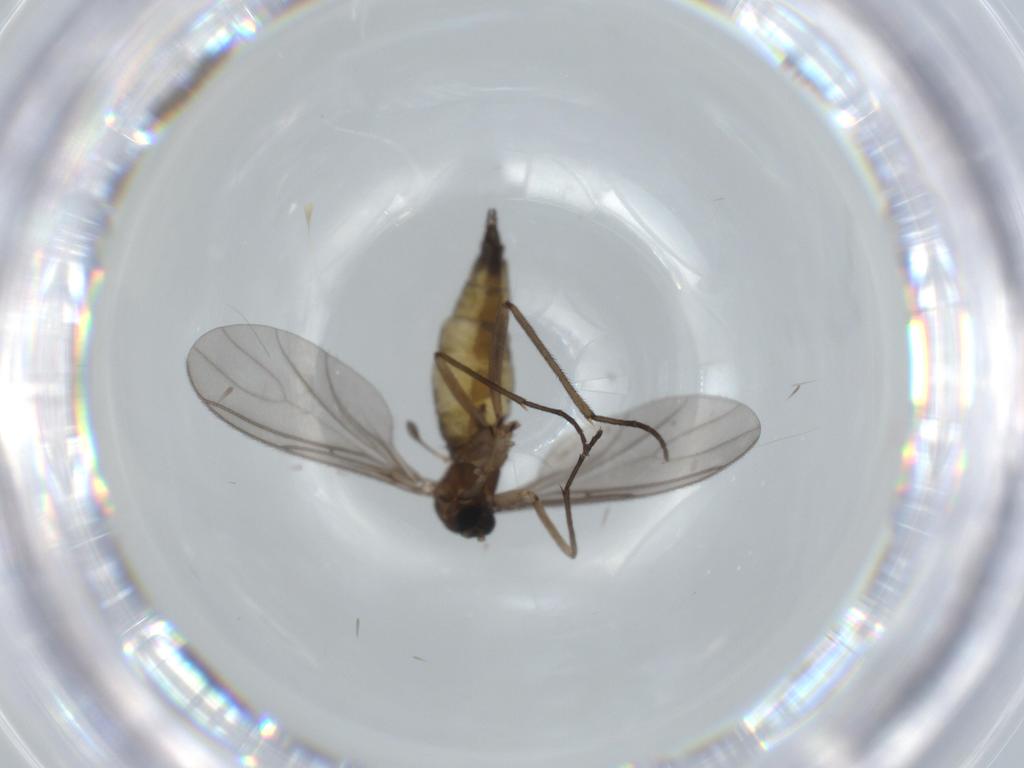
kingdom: Animalia
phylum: Arthropoda
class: Insecta
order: Diptera
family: Sciaridae
